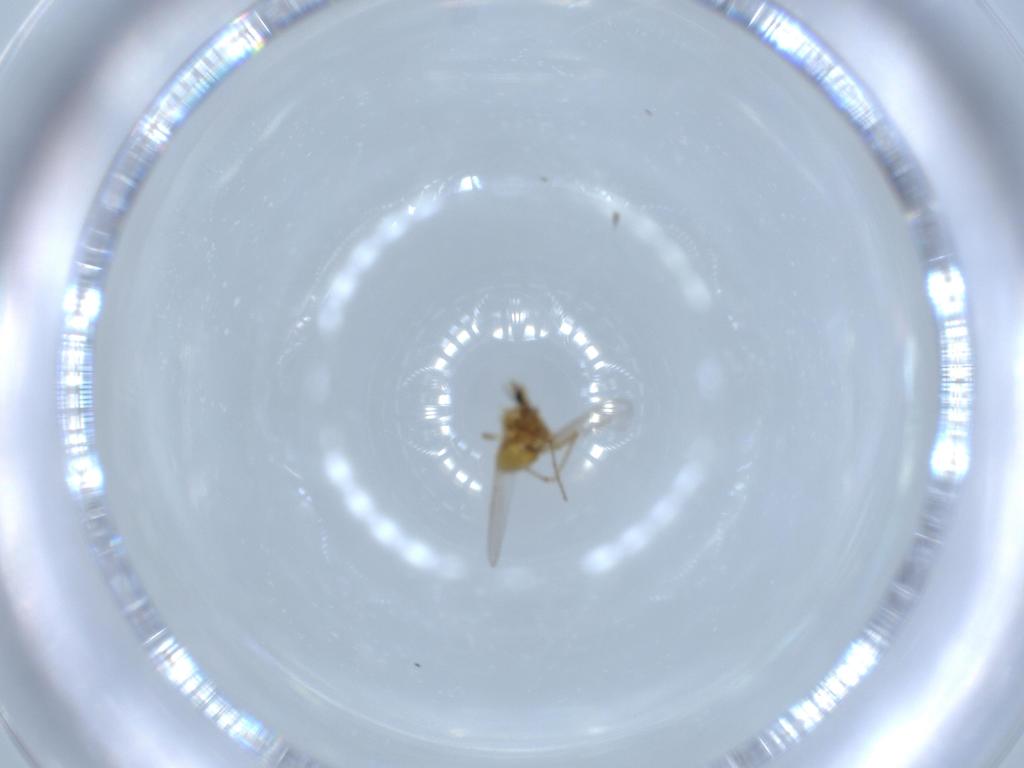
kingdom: Animalia
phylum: Arthropoda
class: Insecta
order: Diptera
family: Chironomidae
